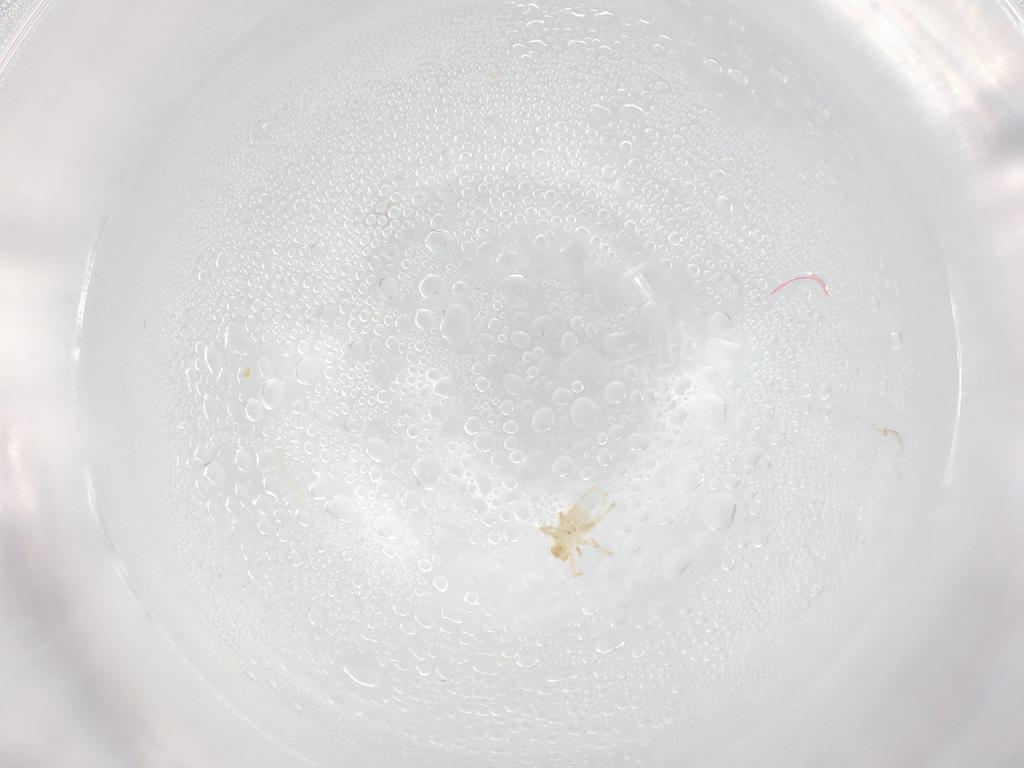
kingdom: Animalia
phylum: Arthropoda
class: Arachnida
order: Trombidiformes
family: Erythraeidae
